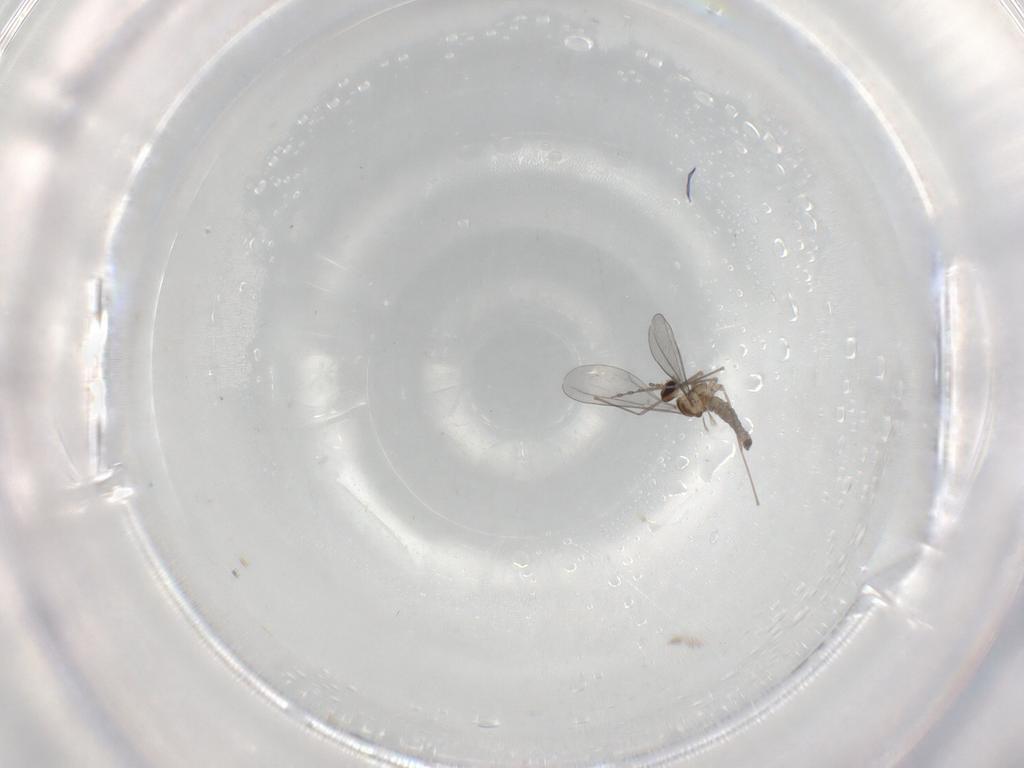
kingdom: Animalia
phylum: Arthropoda
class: Insecta
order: Diptera
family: Cecidomyiidae
